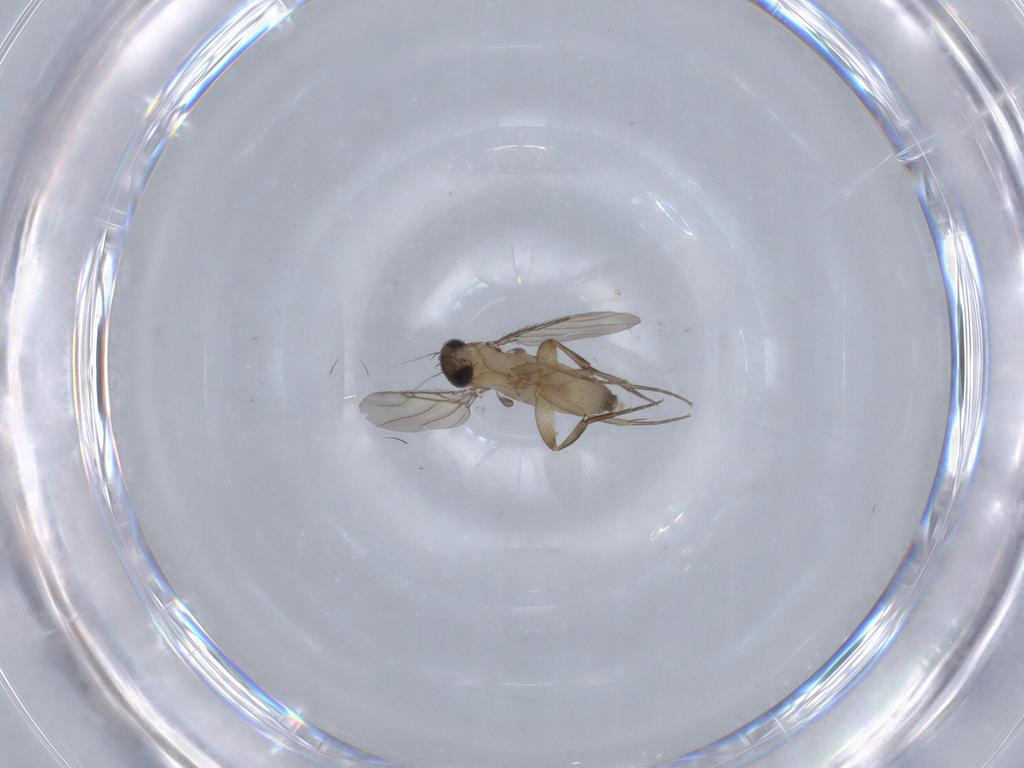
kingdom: Animalia
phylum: Arthropoda
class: Insecta
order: Diptera
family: Phoridae
